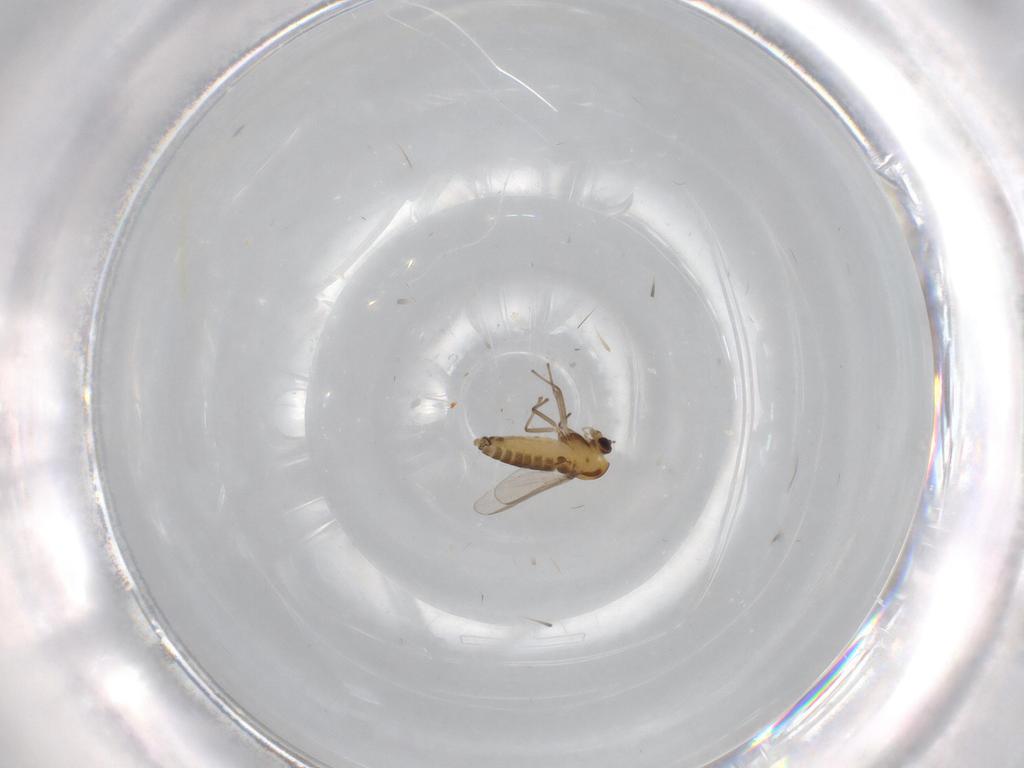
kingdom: Animalia
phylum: Arthropoda
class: Insecta
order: Diptera
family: Chironomidae
